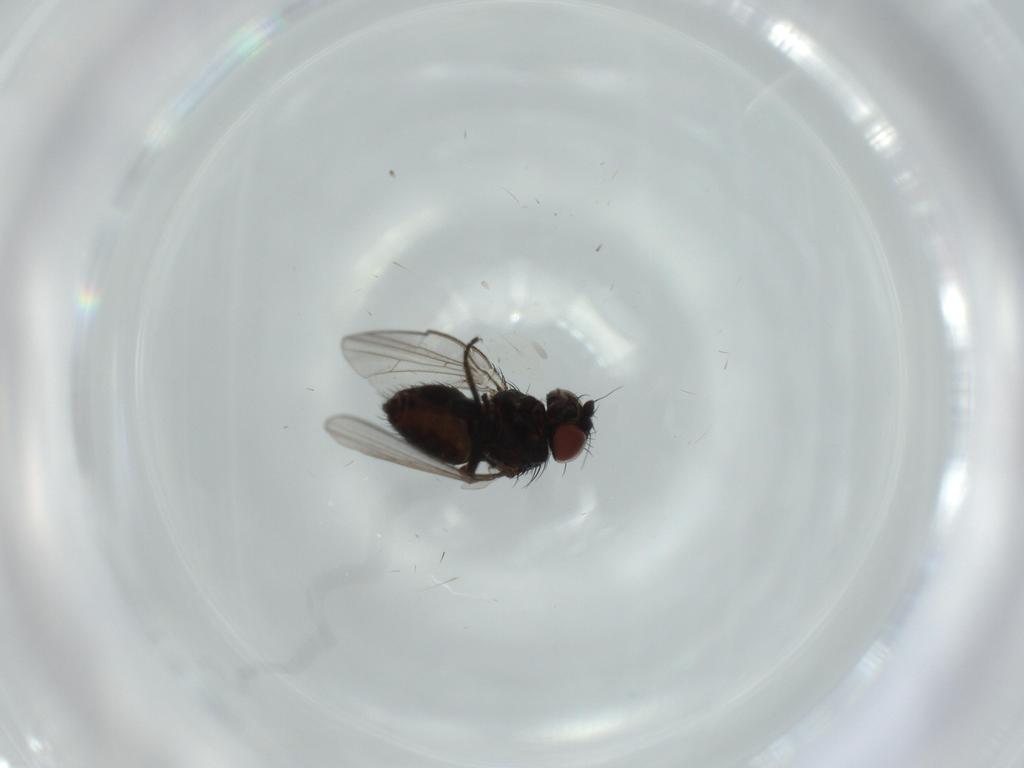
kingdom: Animalia
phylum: Arthropoda
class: Insecta
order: Diptera
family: Milichiidae
